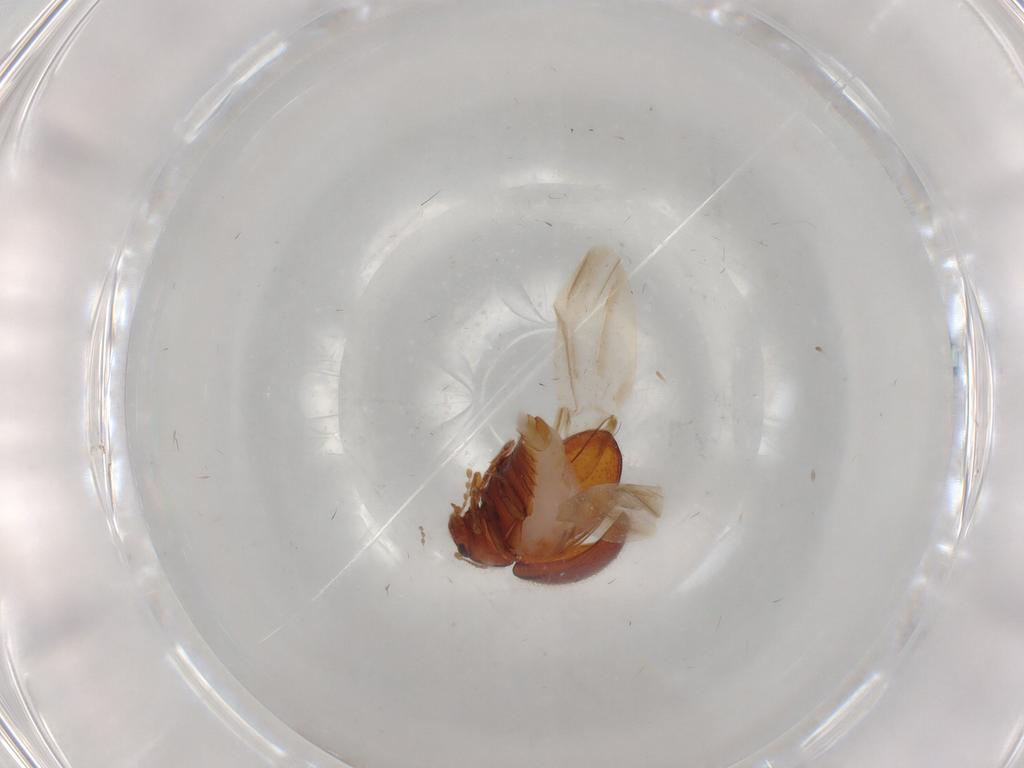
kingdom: Animalia
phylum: Arthropoda
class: Insecta
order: Coleoptera
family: Anamorphidae
